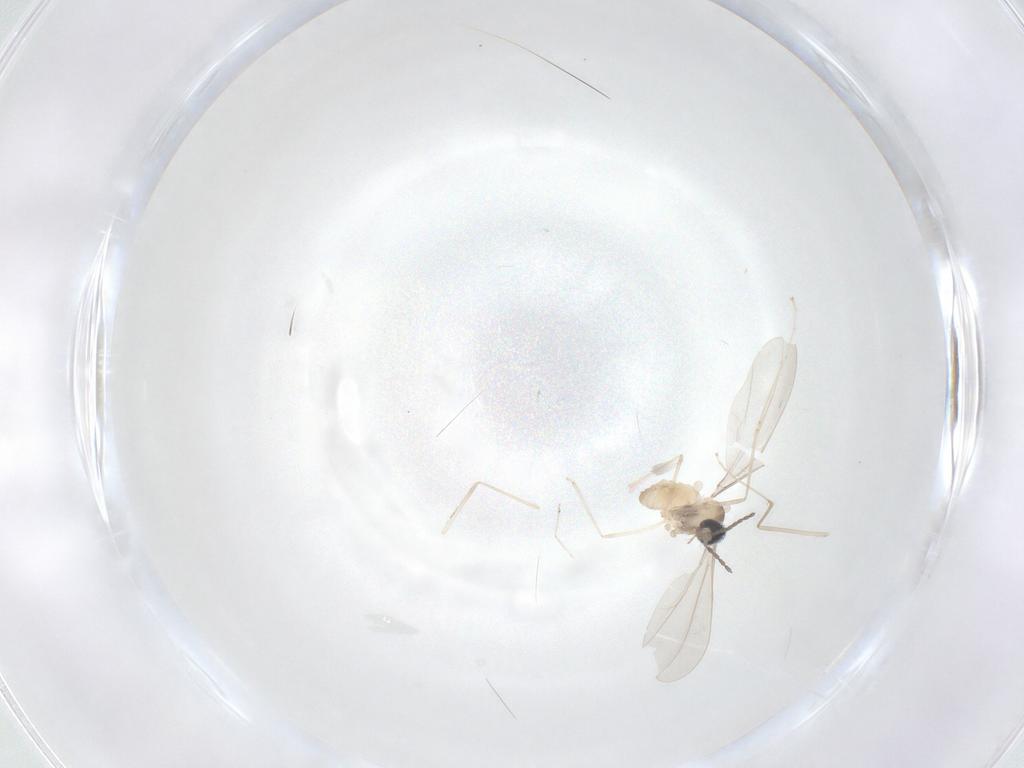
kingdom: Animalia
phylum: Arthropoda
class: Insecta
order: Diptera
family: Cecidomyiidae
